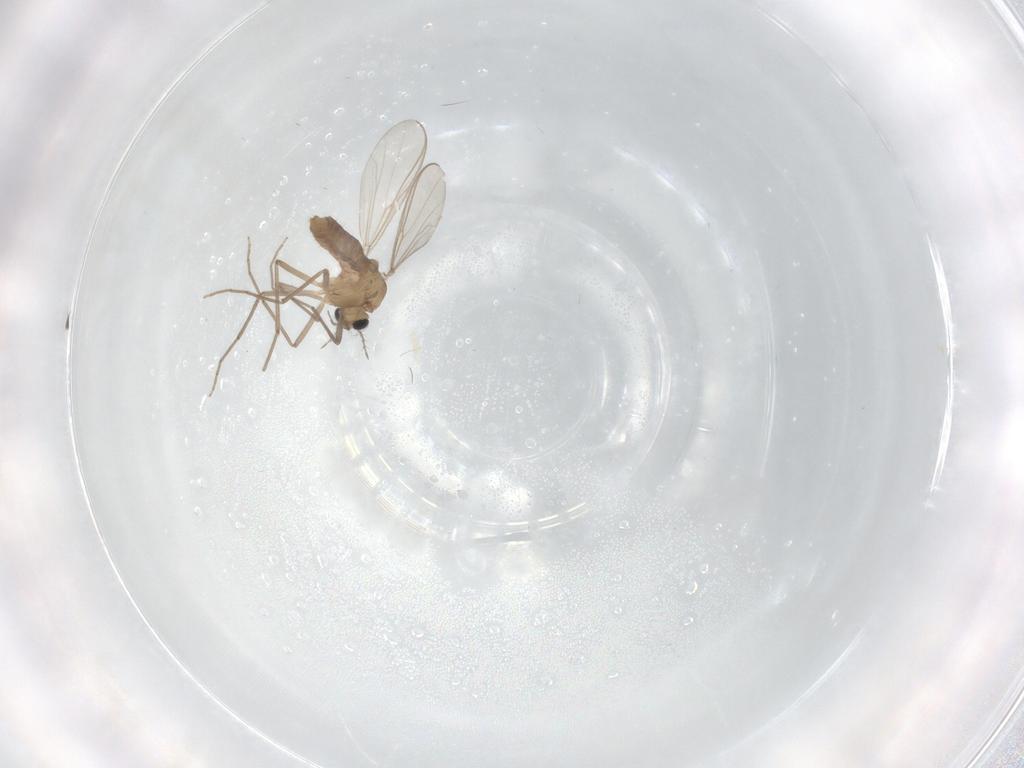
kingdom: Animalia
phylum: Arthropoda
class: Insecta
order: Diptera
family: Chironomidae
